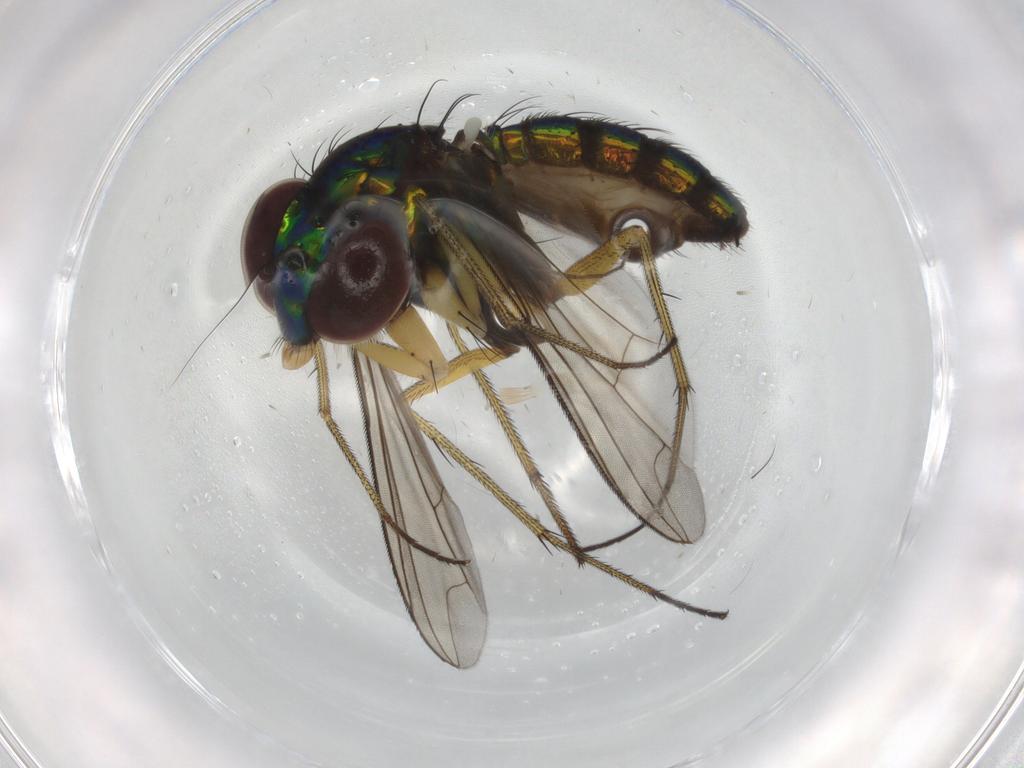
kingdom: Animalia
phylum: Arthropoda
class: Insecta
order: Diptera
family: Dolichopodidae
